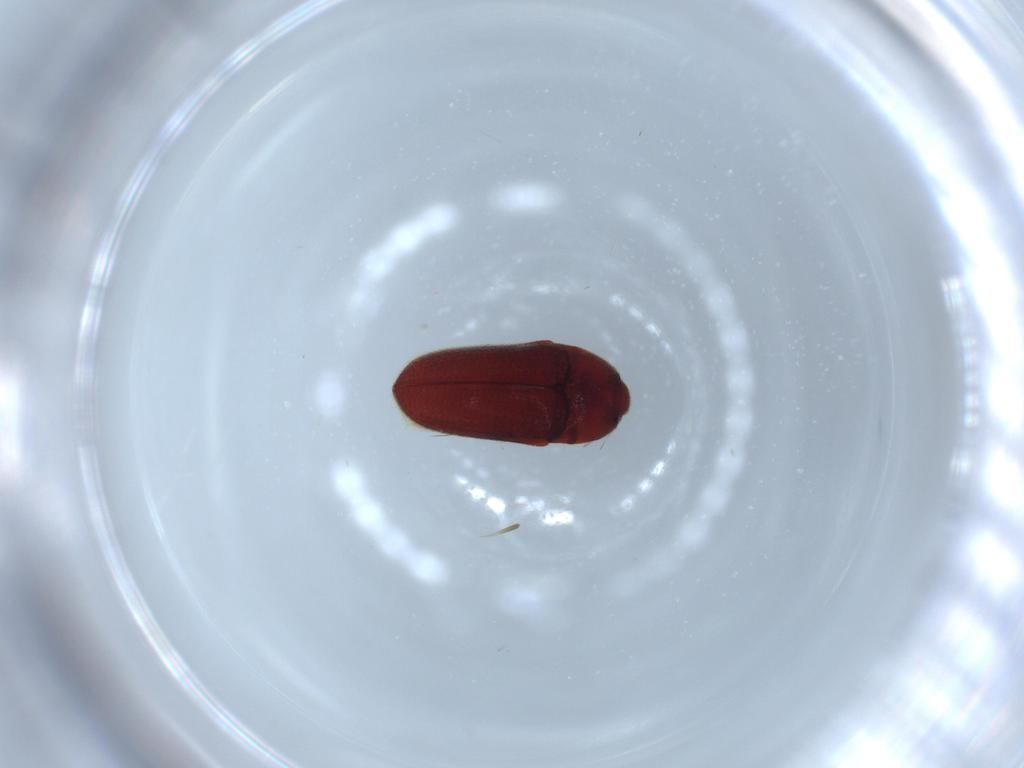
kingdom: Animalia
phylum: Arthropoda
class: Insecta
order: Coleoptera
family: Throscidae
